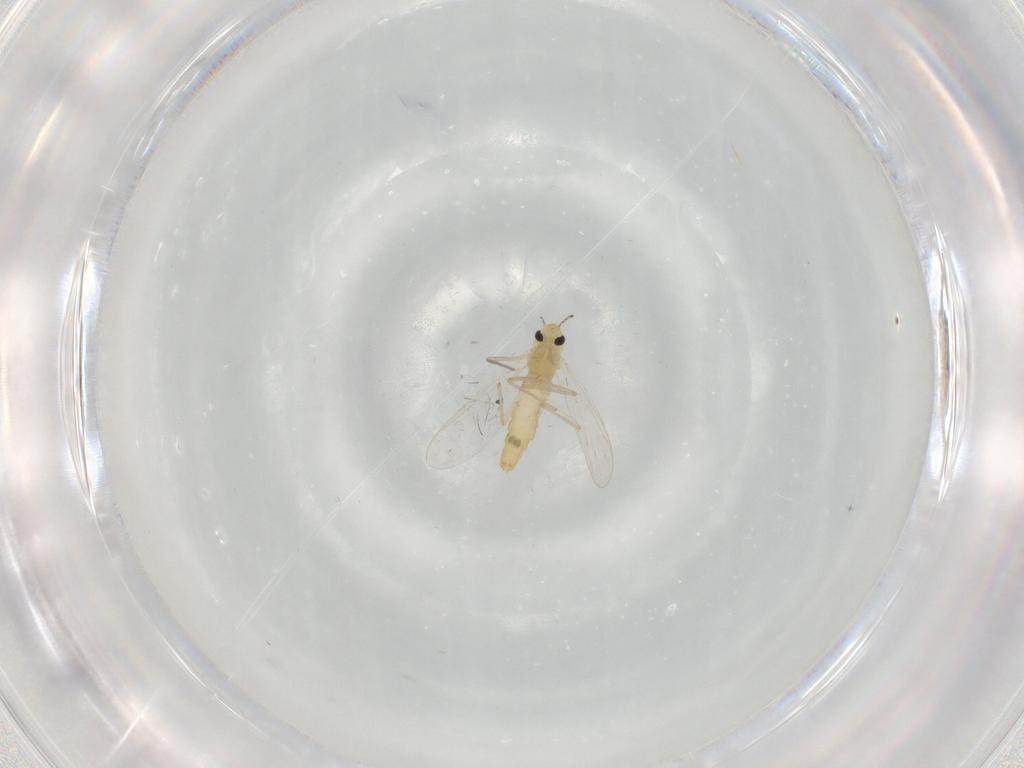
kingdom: Animalia
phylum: Arthropoda
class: Insecta
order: Diptera
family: Chironomidae
